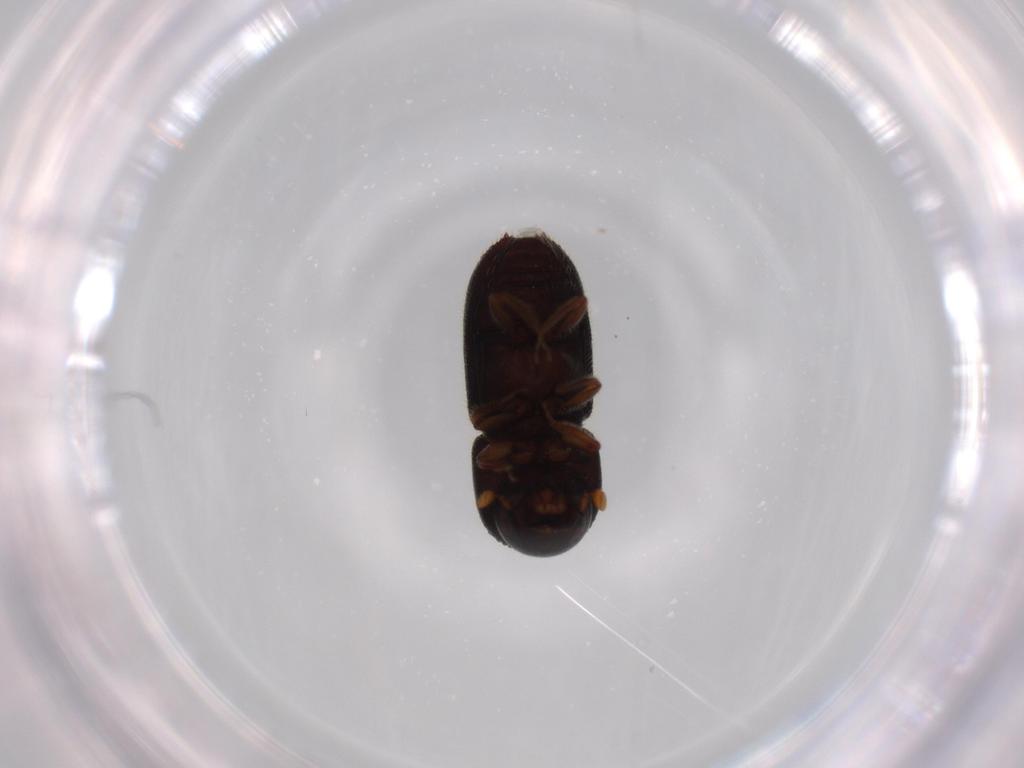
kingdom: Animalia
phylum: Arthropoda
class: Insecta
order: Coleoptera
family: Curculionidae
